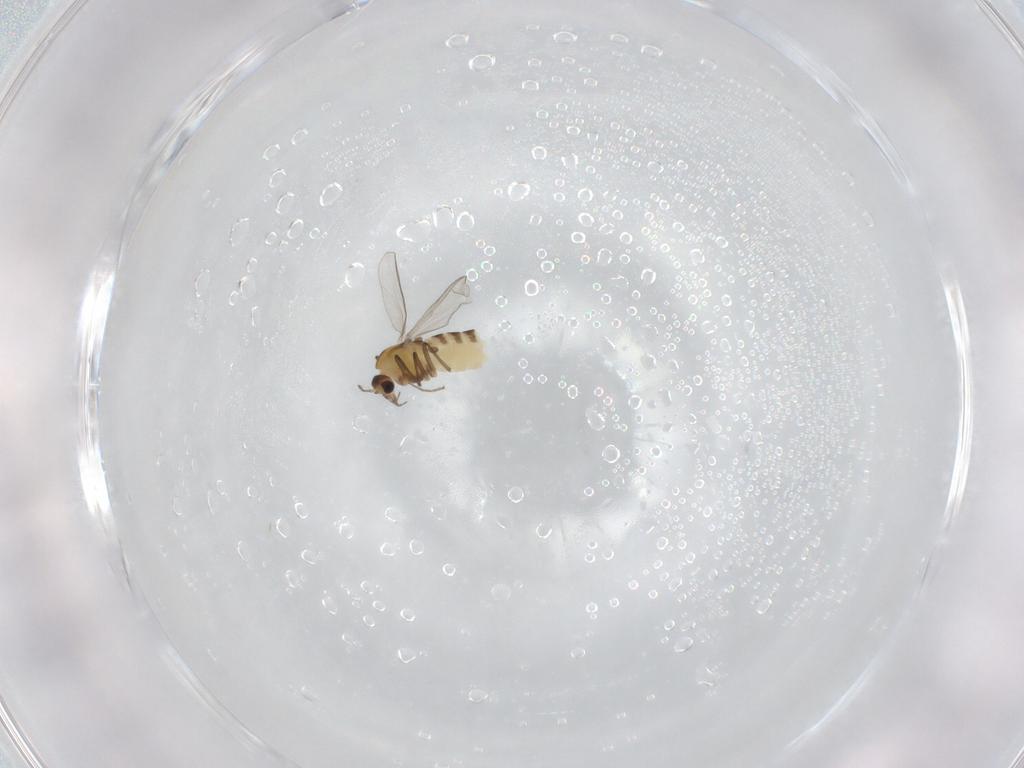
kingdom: Animalia
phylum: Arthropoda
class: Insecta
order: Diptera
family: Chironomidae
